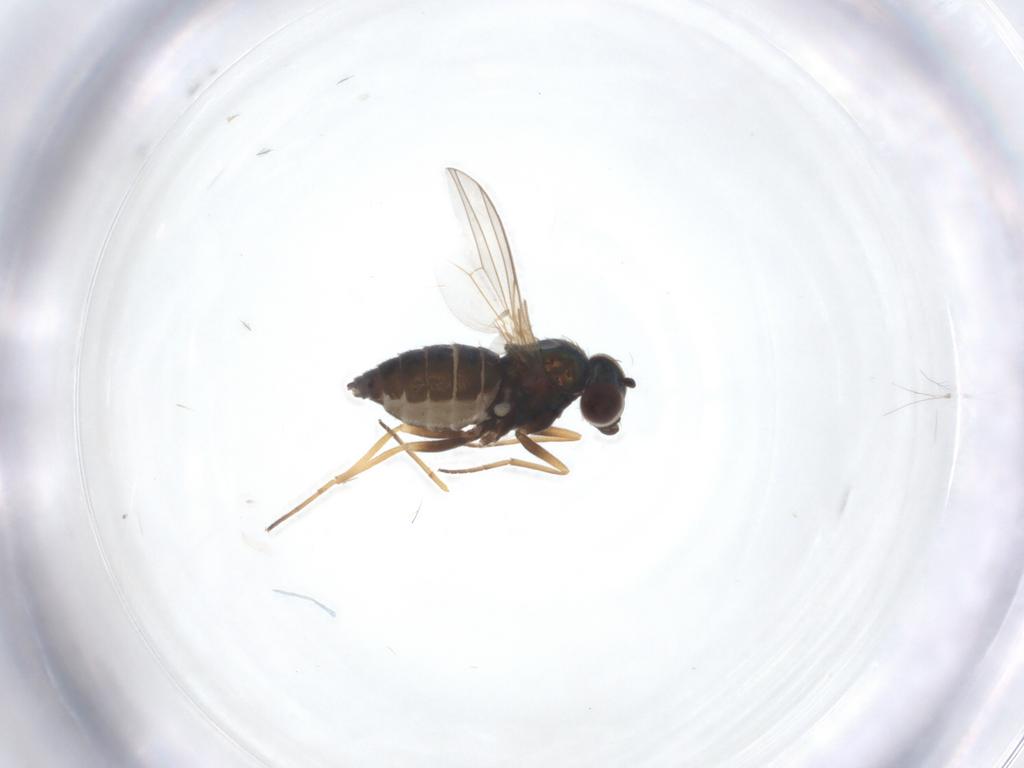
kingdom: Animalia
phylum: Arthropoda
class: Insecta
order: Diptera
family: Dolichopodidae
